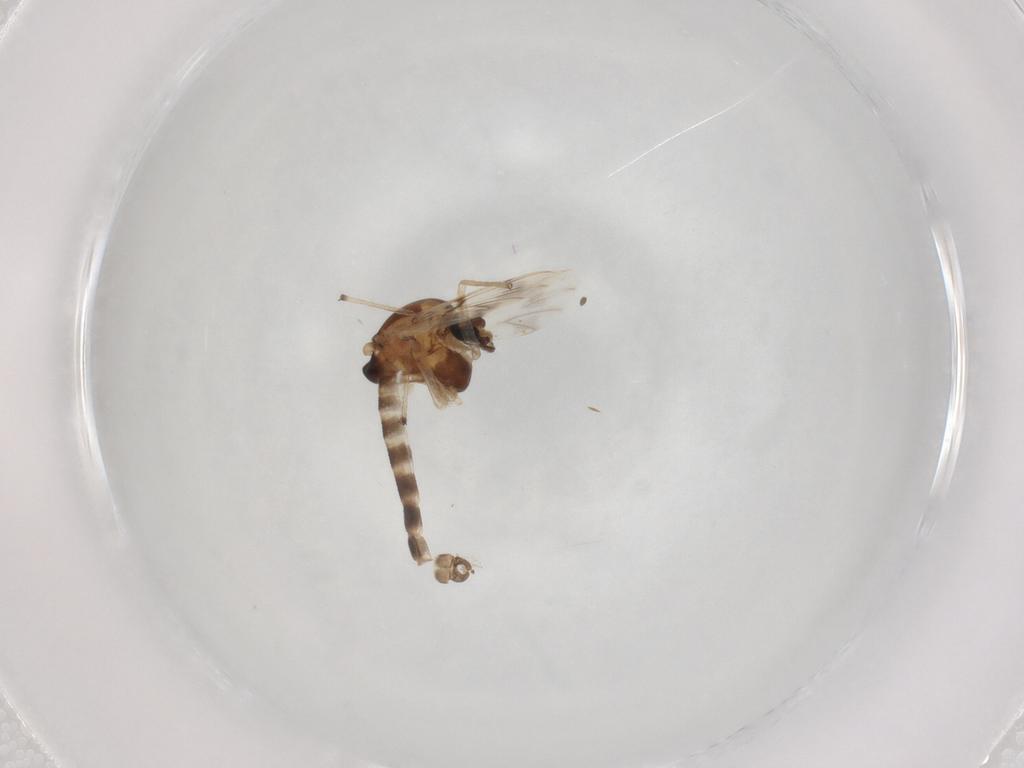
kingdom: Animalia
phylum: Arthropoda
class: Insecta
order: Diptera
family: Chironomidae
